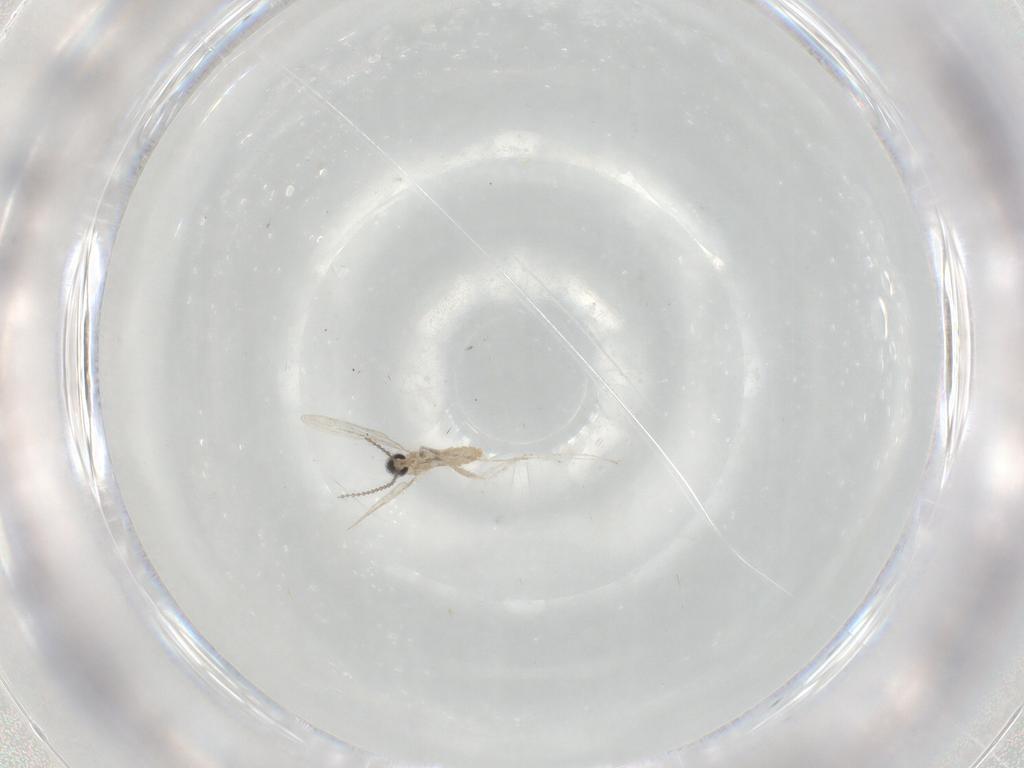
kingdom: Animalia
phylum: Arthropoda
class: Insecta
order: Diptera
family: Cecidomyiidae
